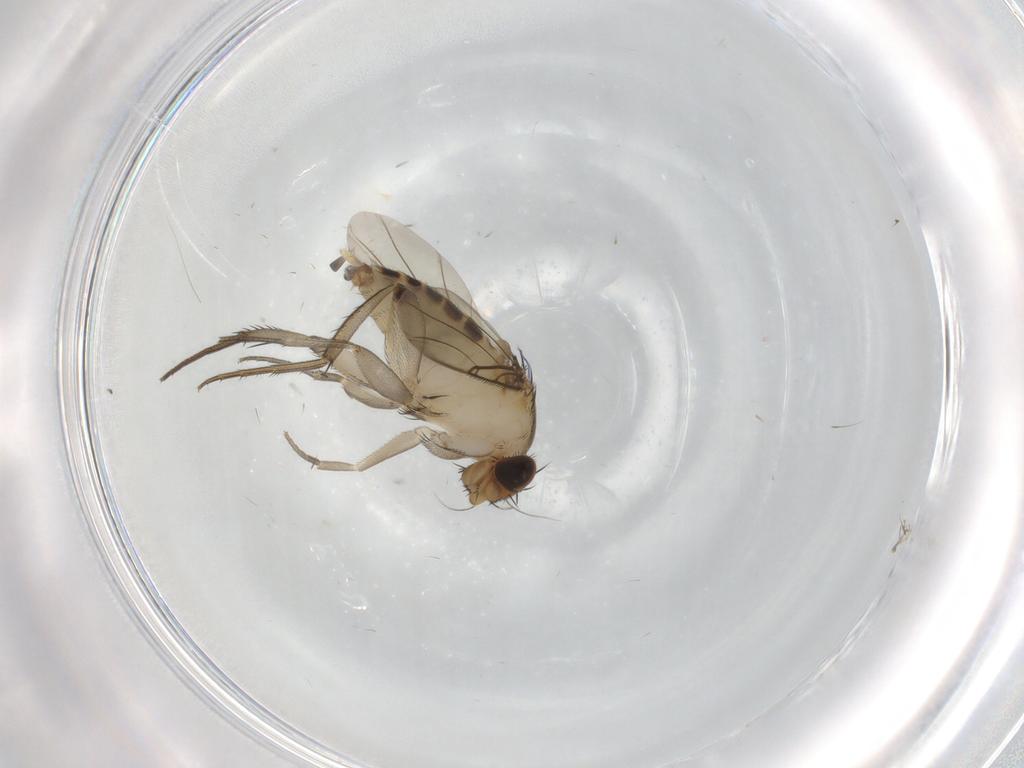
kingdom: Animalia
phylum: Arthropoda
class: Insecta
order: Diptera
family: Phoridae
